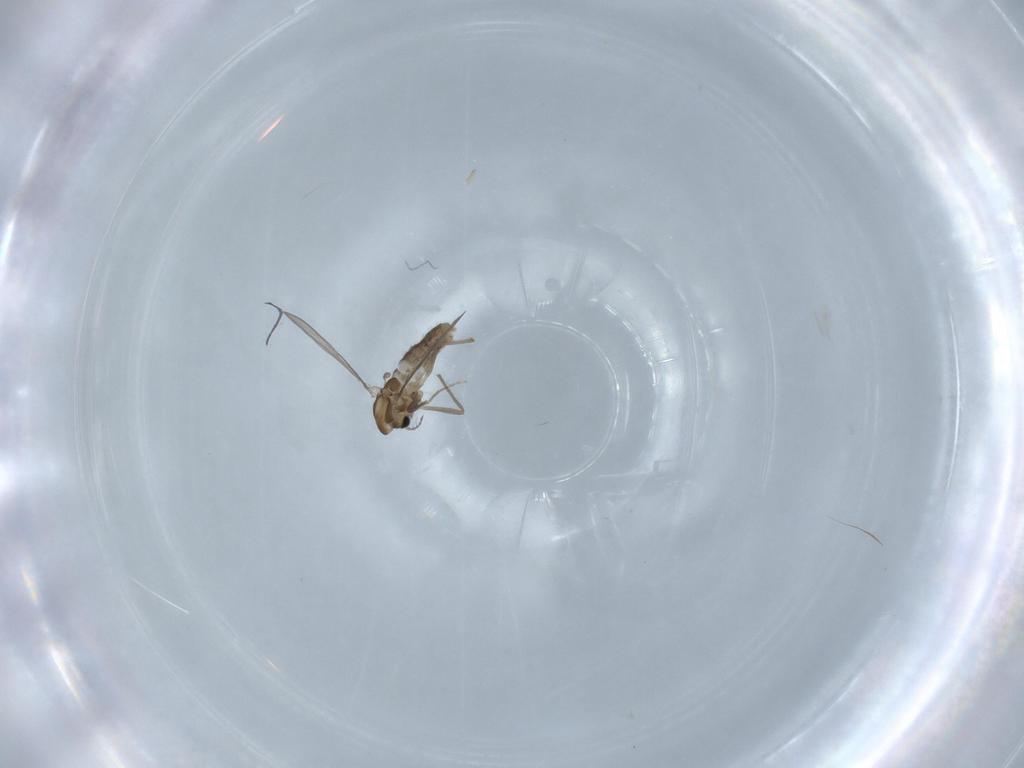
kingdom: Animalia
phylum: Arthropoda
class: Insecta
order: Diptera
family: Chironomidae
